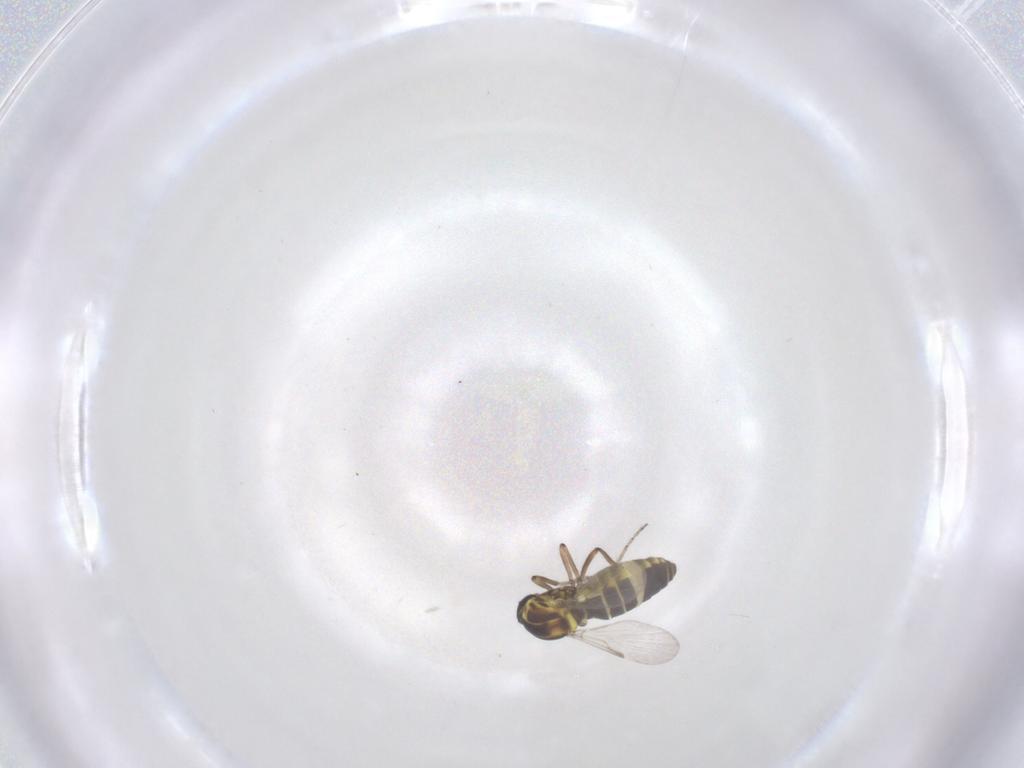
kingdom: Animalia
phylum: Arthropoda
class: Insecta
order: Diptera
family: Ceratopogonidae
